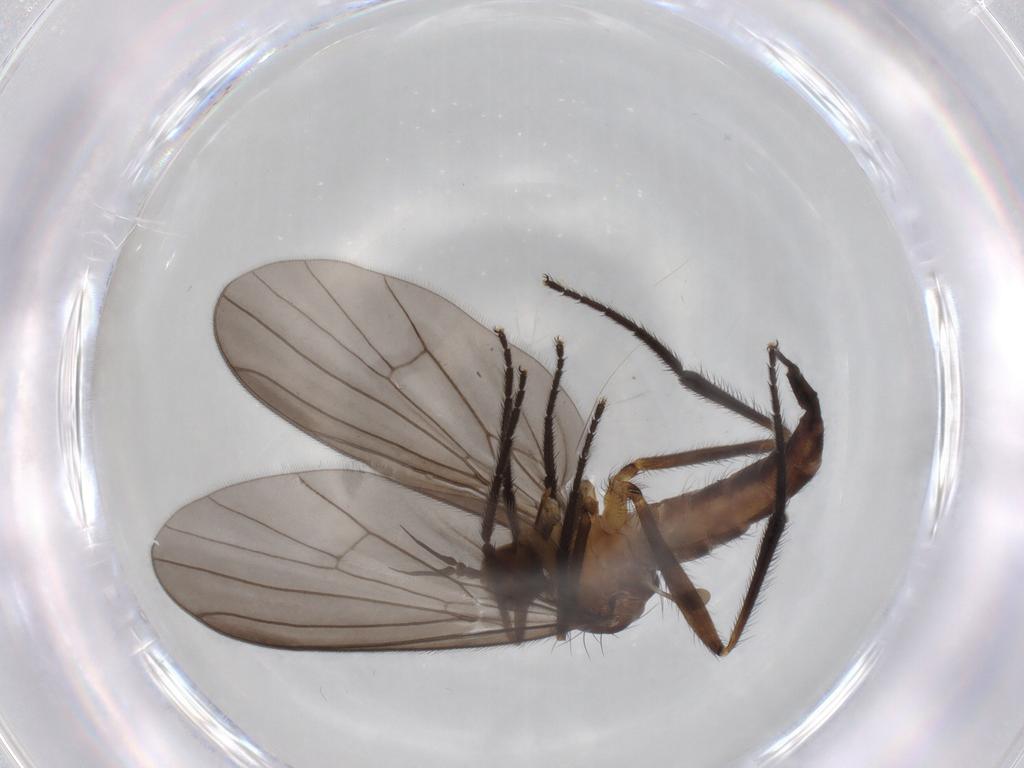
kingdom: Animalia
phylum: Arthropoda
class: Insecta
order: Diptera
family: Empididae
